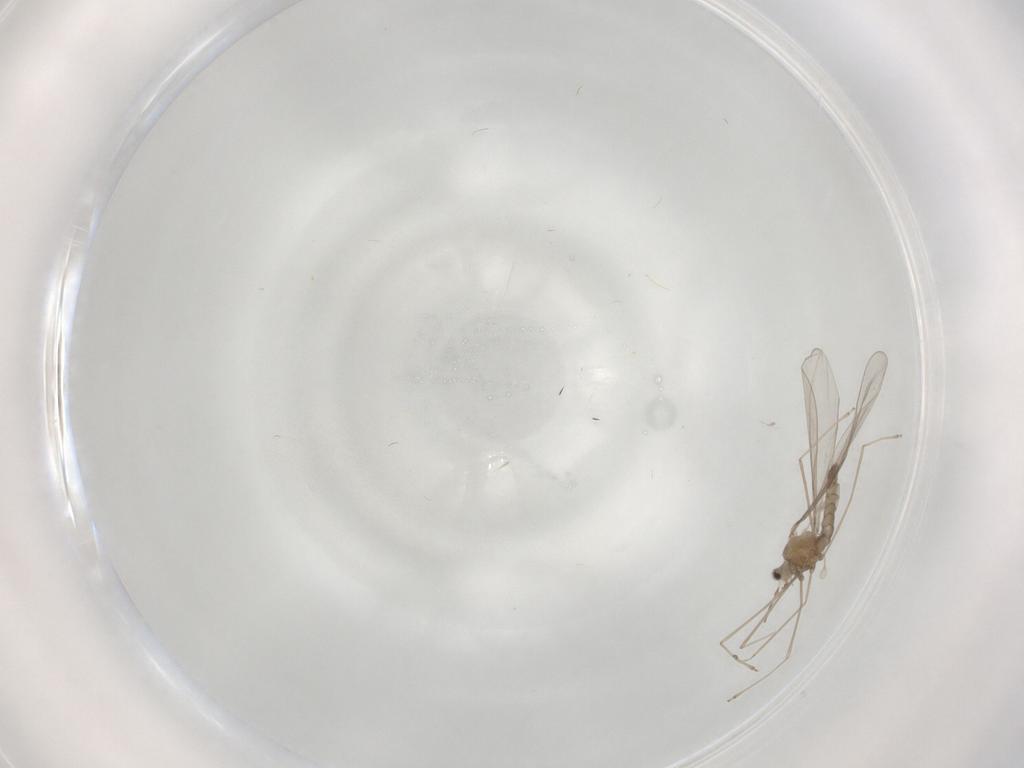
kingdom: Animalia
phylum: Arthropoda
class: Insecta
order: Diptera
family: Cecidomyiidae
